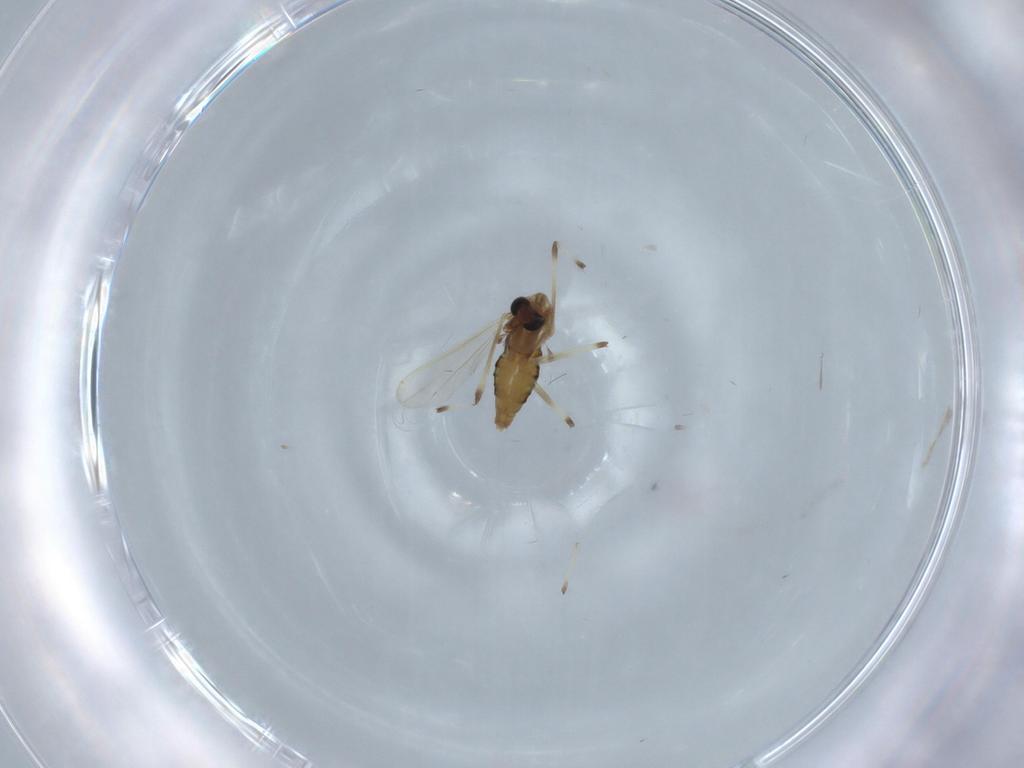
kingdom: Animalia
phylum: Arthropoda
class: Insecta
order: Diptera
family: Chironomidae
